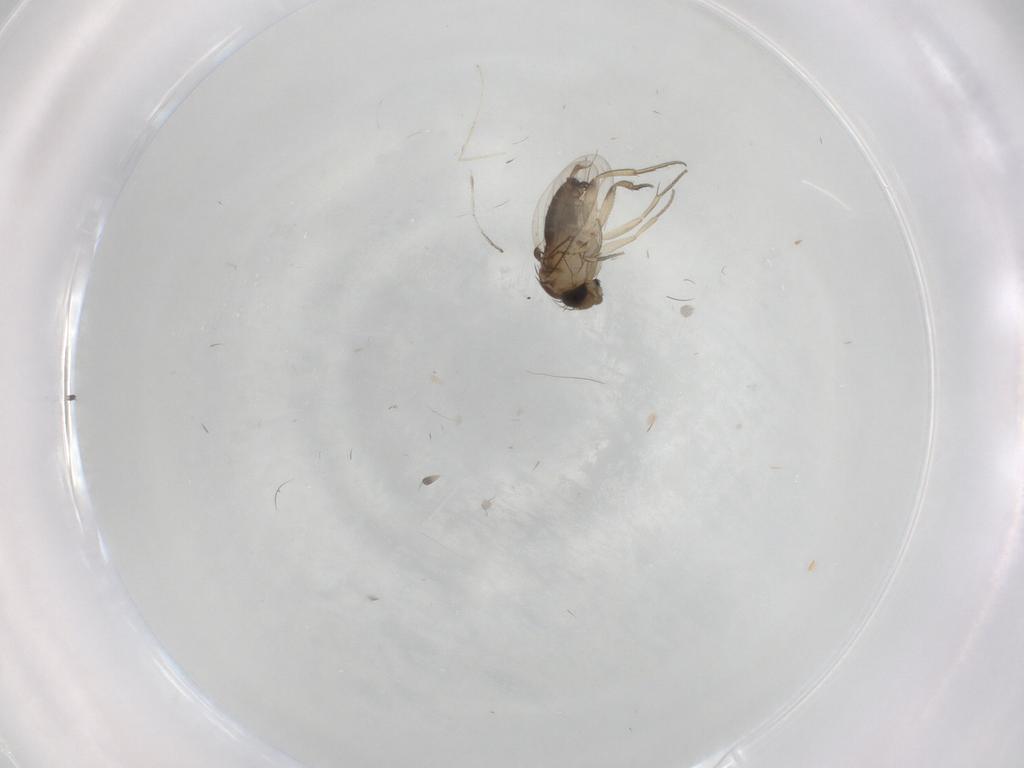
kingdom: Animalia
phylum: Arthropoda
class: Insecta
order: Diptera
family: Cecidomyiidae
